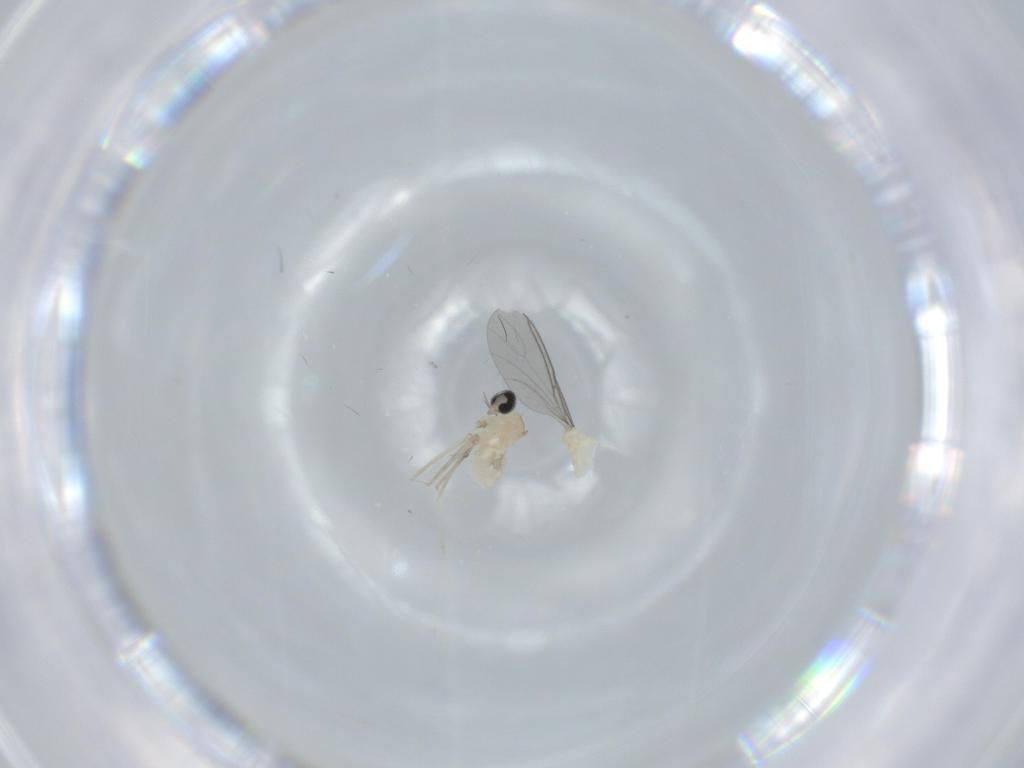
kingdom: Animalia
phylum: Arthropoda
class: Insecta
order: Diptera
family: Cecidomyiidae
